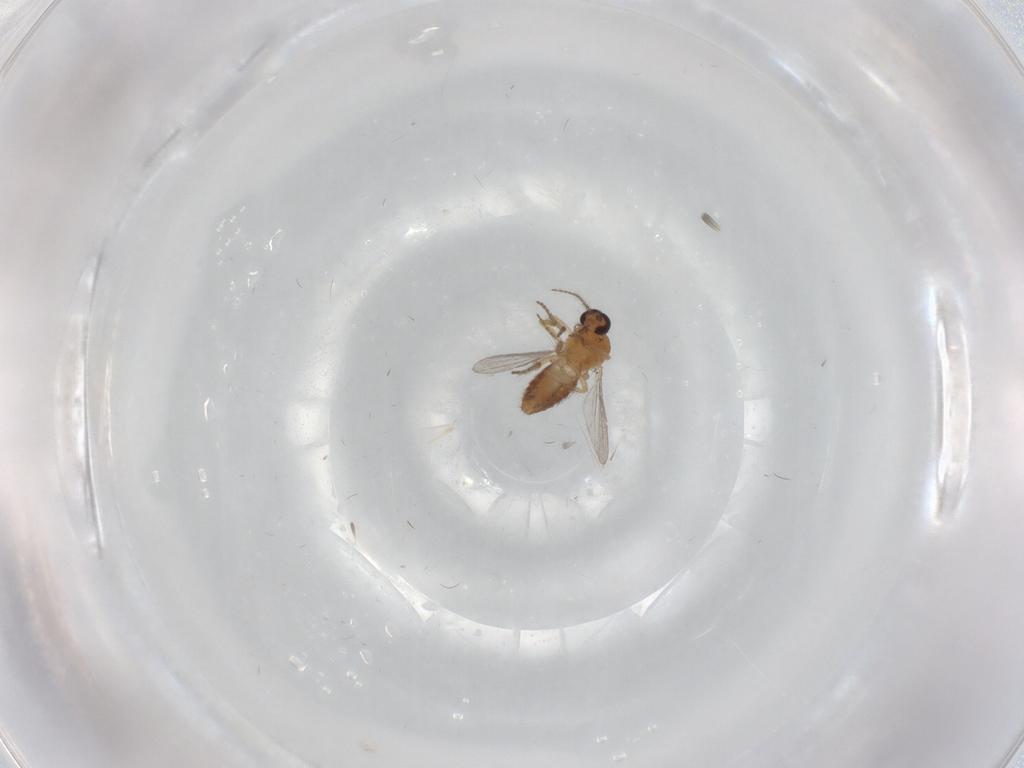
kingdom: Animalia
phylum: Arthropoda
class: Insecta
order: Diptera
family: Ceratopogonidae
